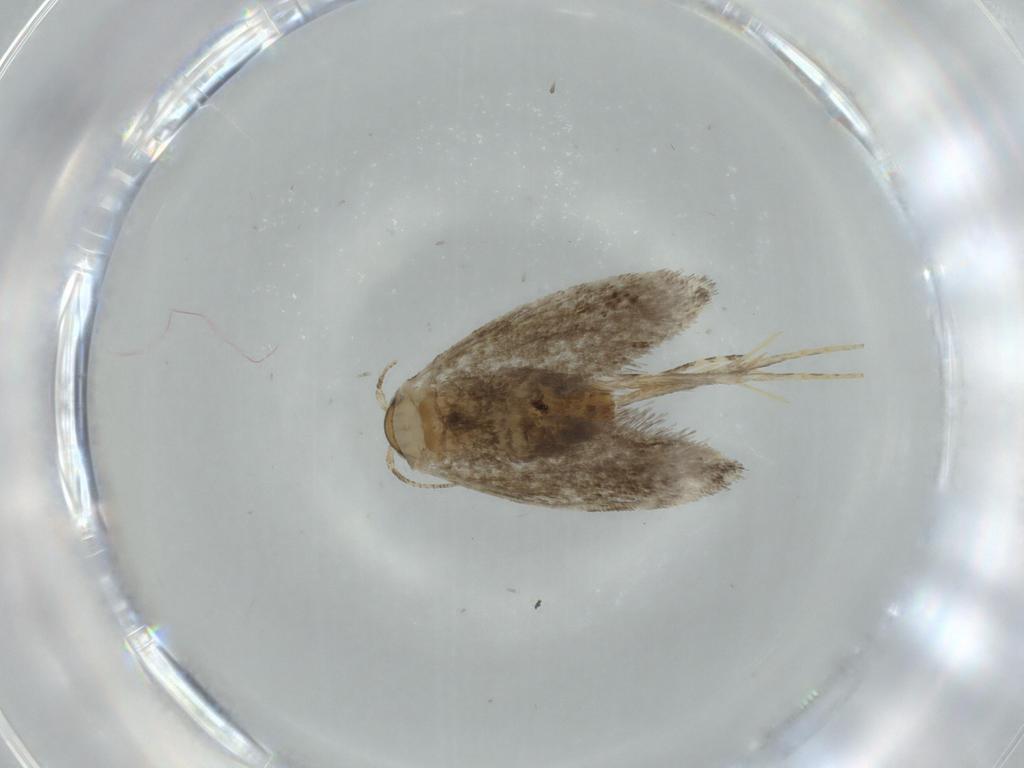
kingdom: Animalia
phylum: Arthropoda
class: Insecta
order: Lepidoptera
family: Tineidae
